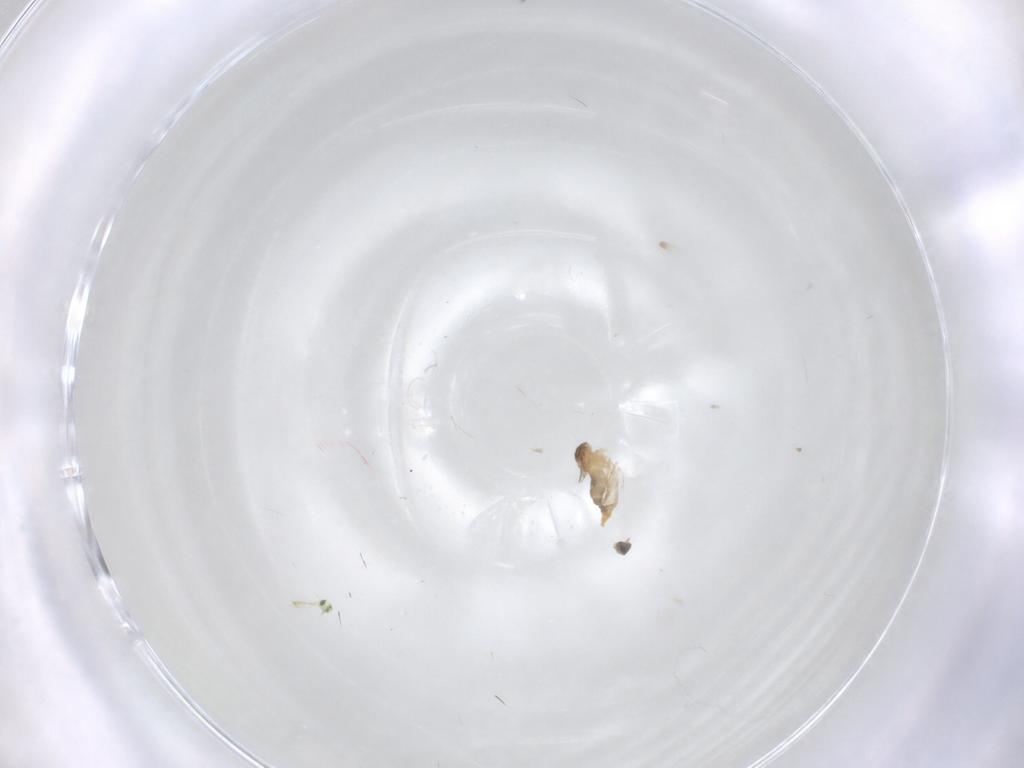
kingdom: Animalia
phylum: Arthropoda
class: Insecta
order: Diptera
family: Cecidomyiidae
